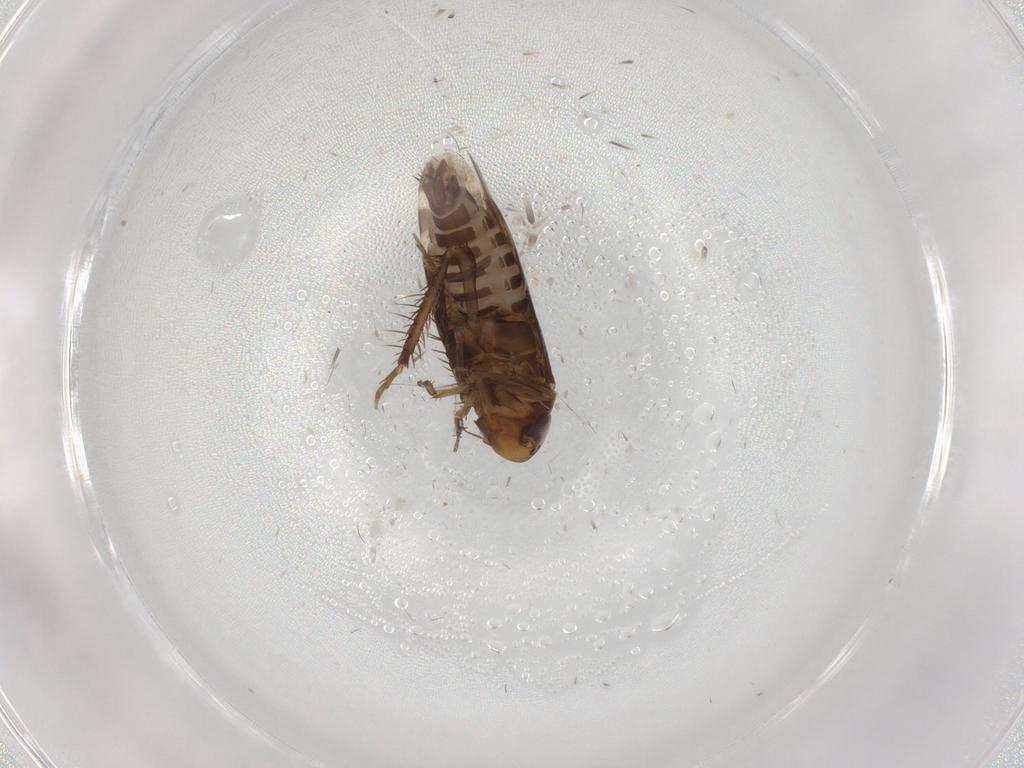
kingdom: Animalia
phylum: Arthropoda
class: Insecta
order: Hemiptera
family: Cicadellidae
